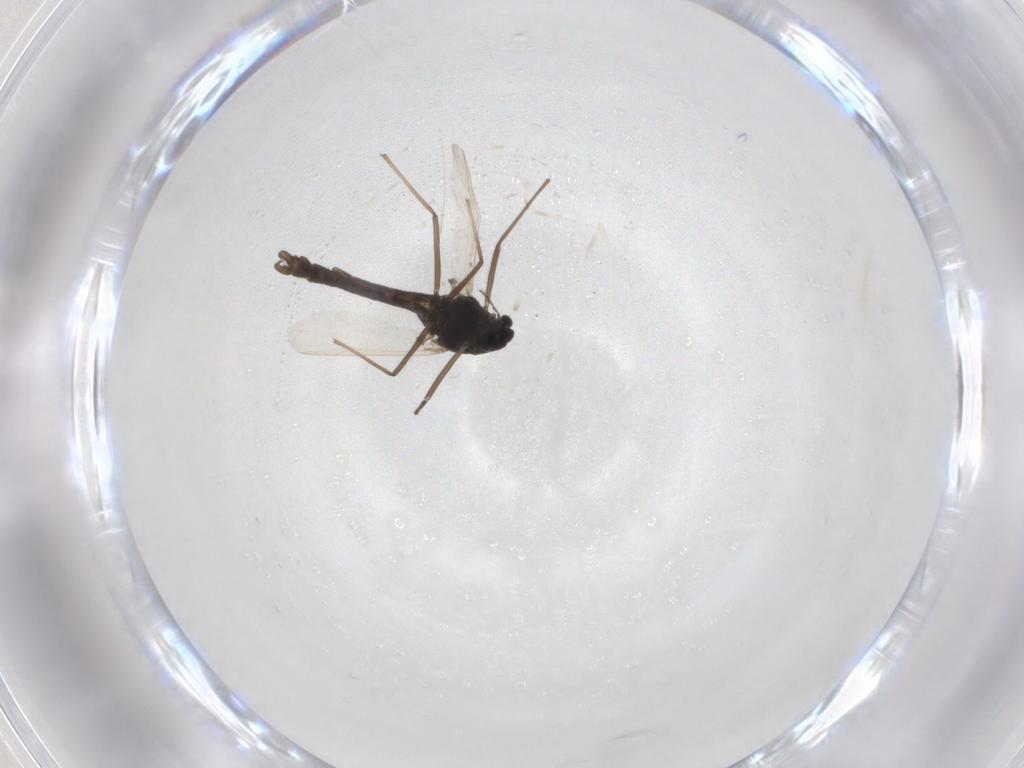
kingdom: Animalia
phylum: Arthropoda
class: Insecta
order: Diptera
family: Chironomidae
